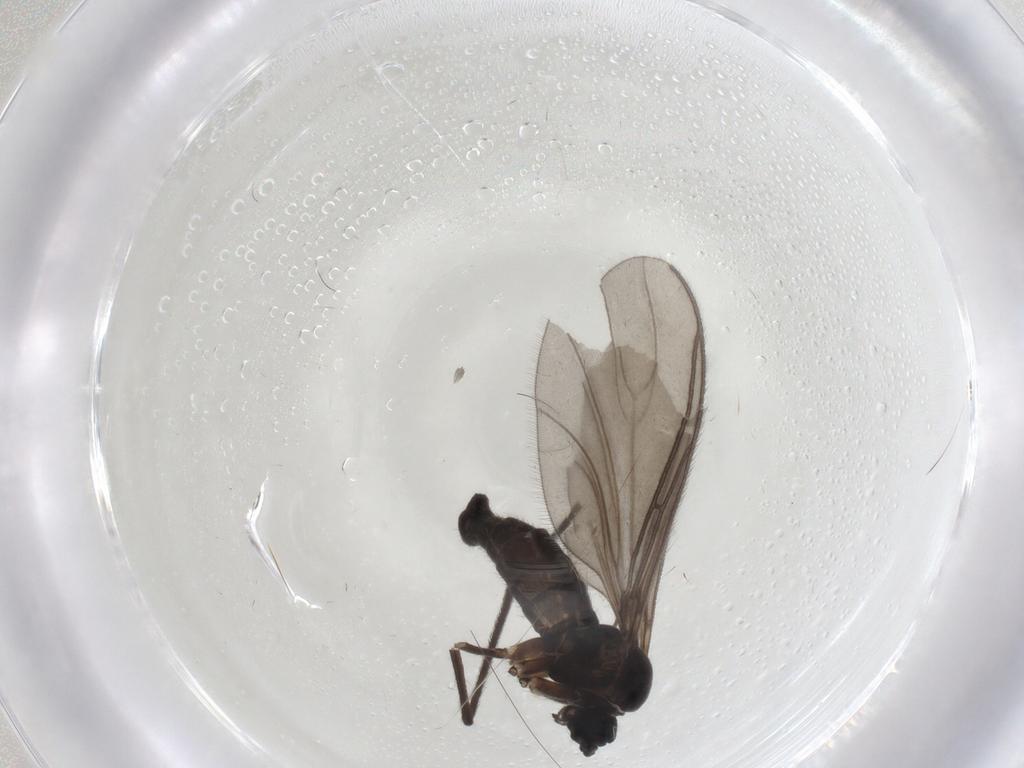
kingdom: Animalia
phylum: Arthropoda
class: Insecta
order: Diptera
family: Sciaridae
